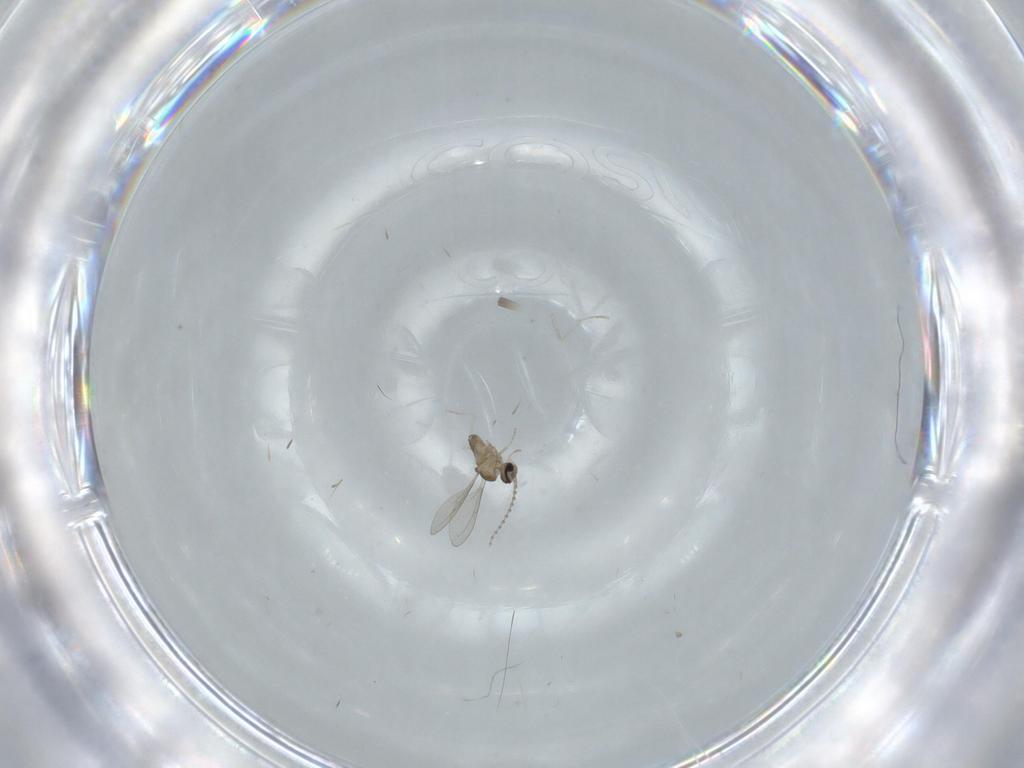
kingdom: Animalia
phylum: Arthropoda
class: Insecta
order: Diptera
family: Cecidomyiidae
